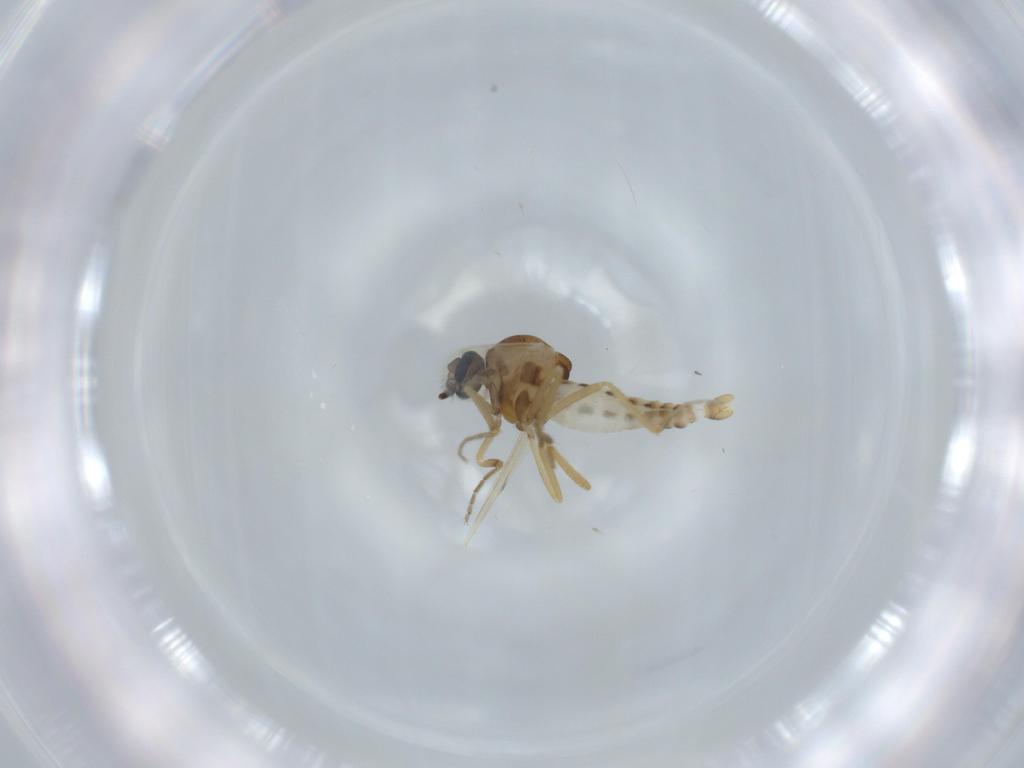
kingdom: Animalia
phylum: Arthropoda
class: Insecta
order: Diptera
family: Ceratopogonidae
